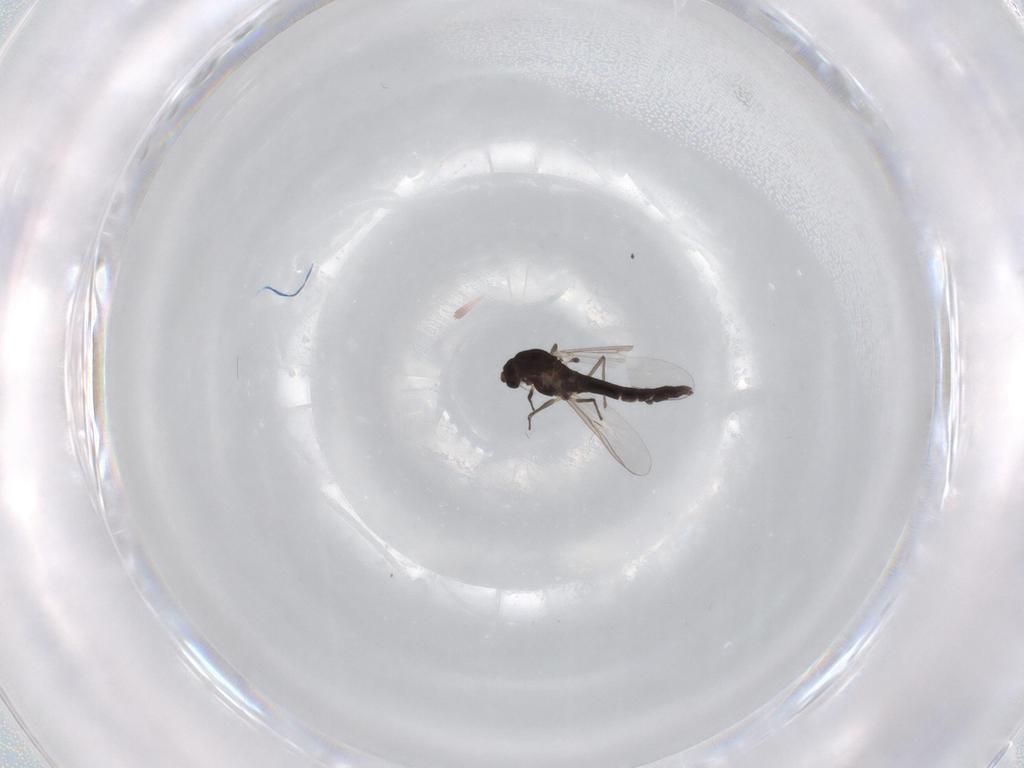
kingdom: Animalia
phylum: Arthropoda
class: Insecta
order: Diptera
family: Chironomidae
